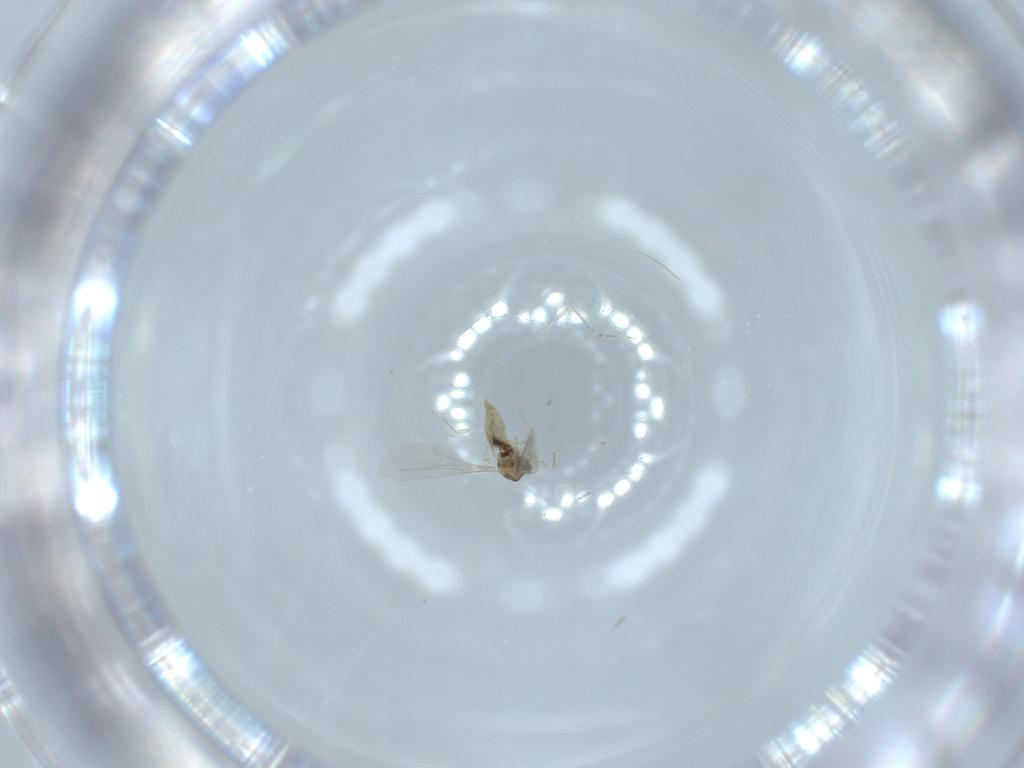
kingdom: Animalia
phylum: Arthropoda
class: Insecta
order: Diptera
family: Cecidomyiidae
